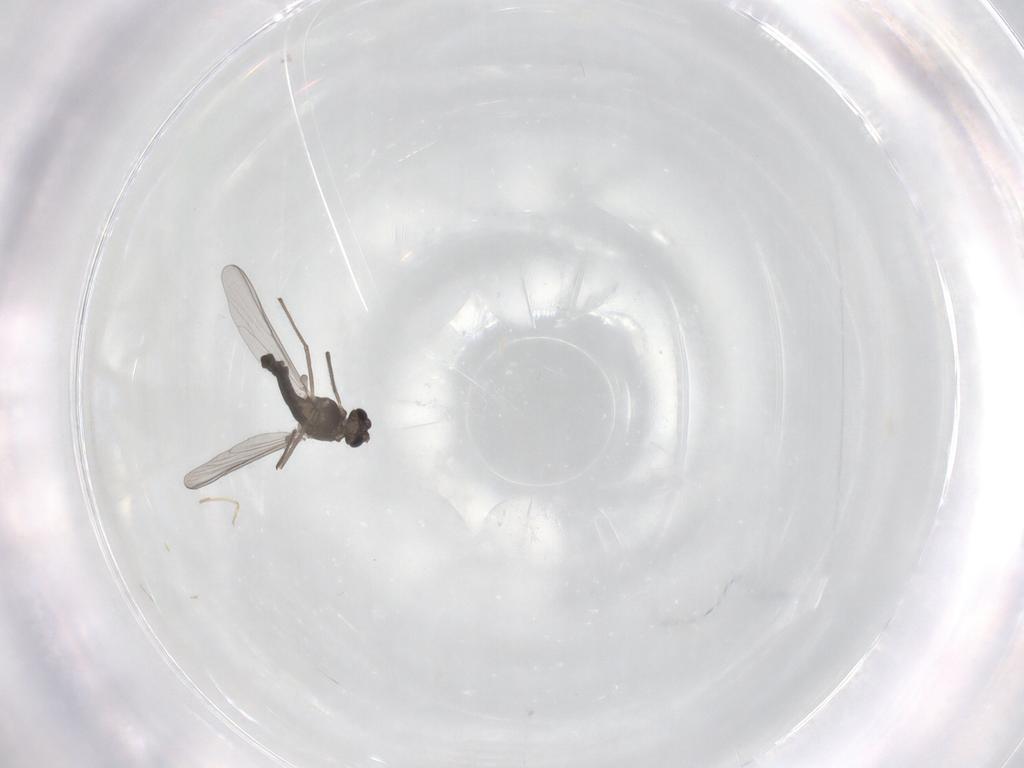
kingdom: Animalia
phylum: Arthropoda
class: Insecta
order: Diptera
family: Chironomidae
